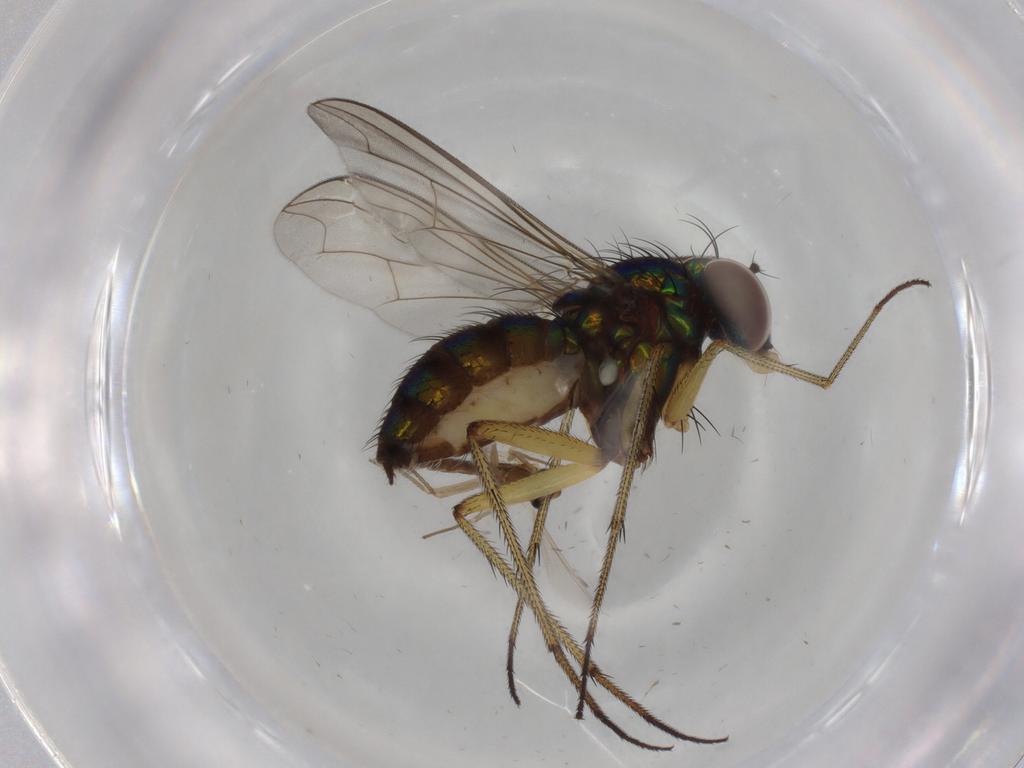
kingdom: Animalia
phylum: Arthropoda
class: Insecta
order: Diptera
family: Dolichopodidae
